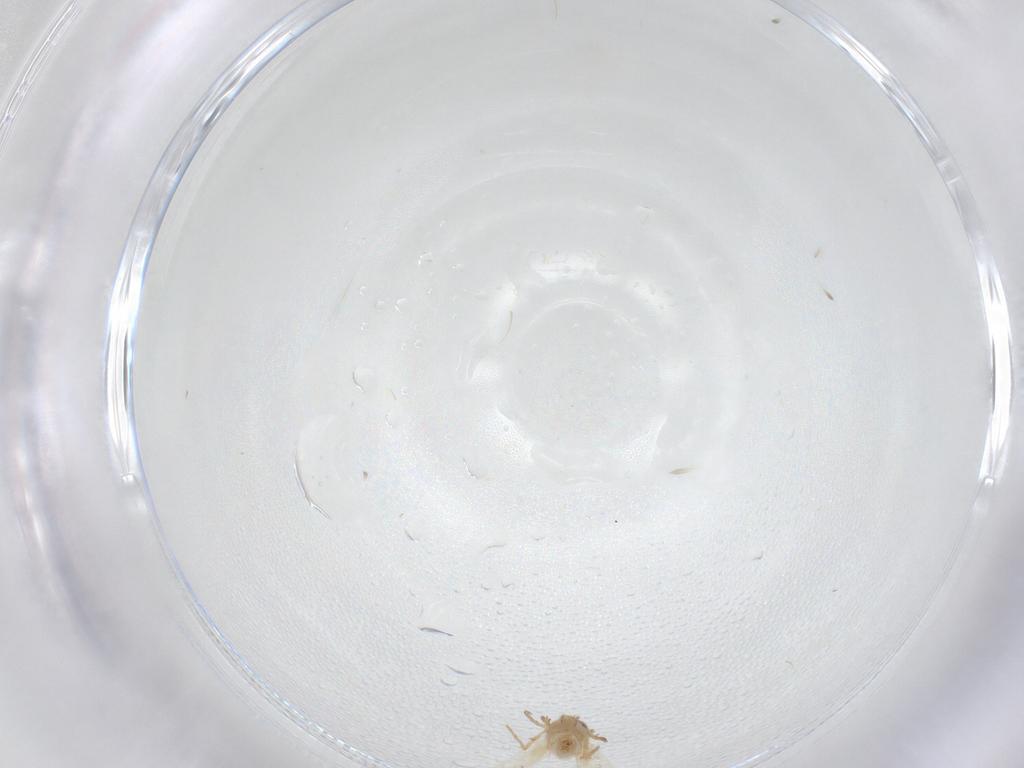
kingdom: Animalia
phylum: Arthropoda
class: Insecta
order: Lepidoptera
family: Crambidae
